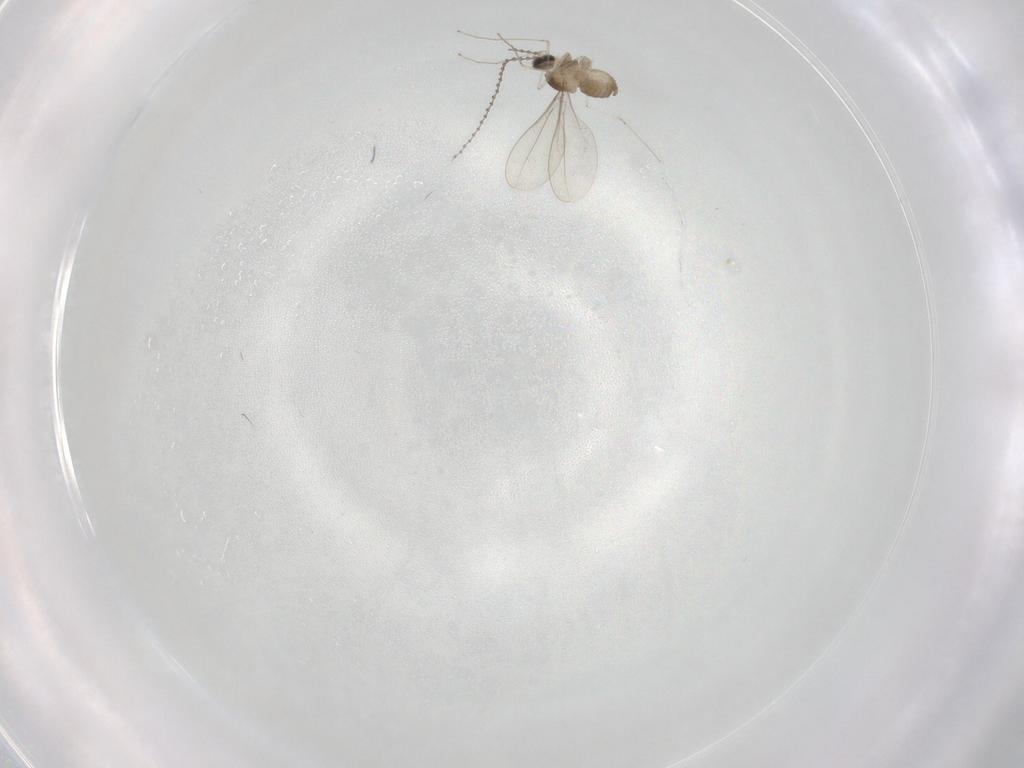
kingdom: Animalia
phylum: Arthropoda
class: Insecta
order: Diptera
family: Cecidomyiidae
